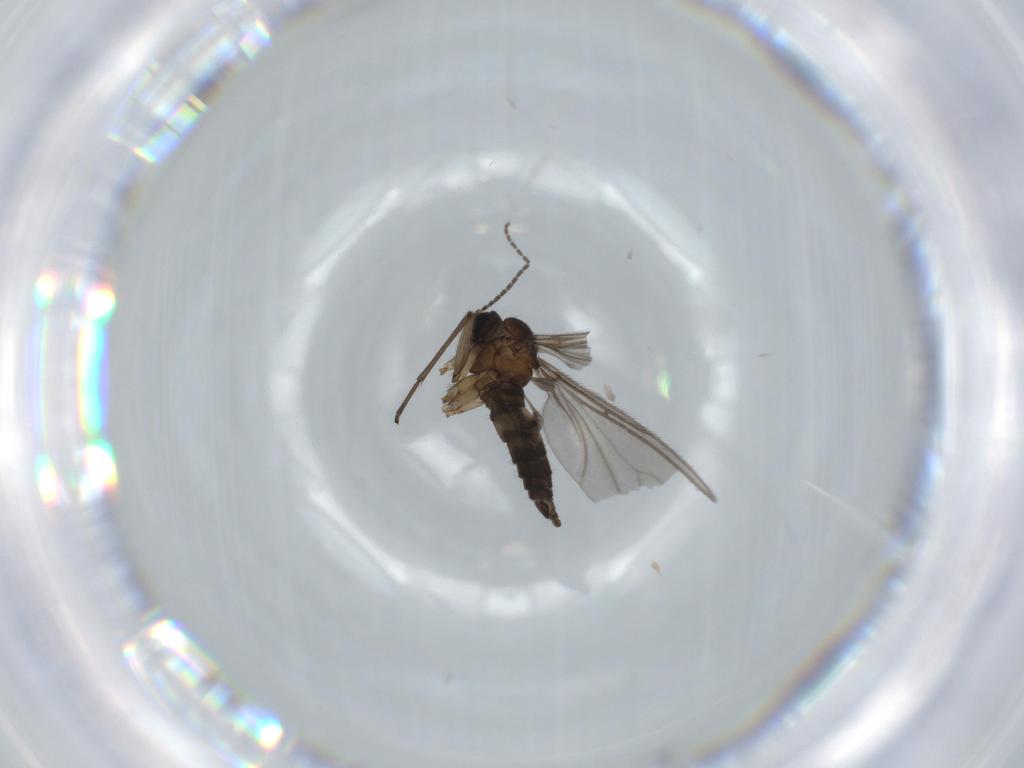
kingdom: Animalia
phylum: Arthropoda
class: Insecta
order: Diptera
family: Sciaridae
